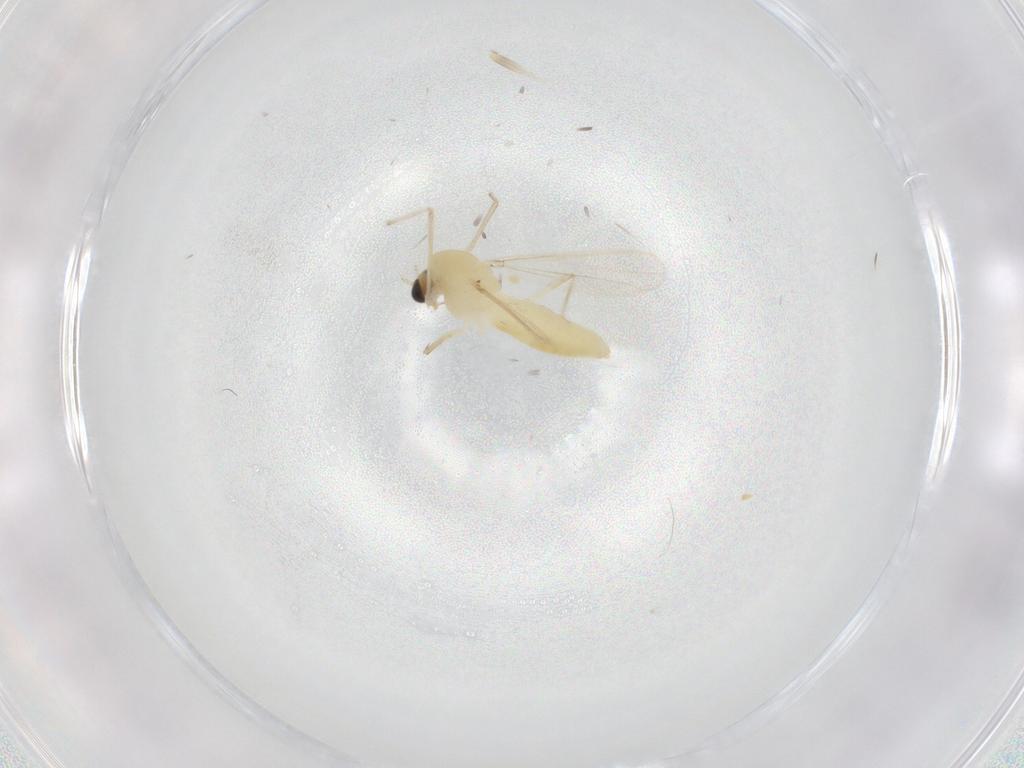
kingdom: Animalia
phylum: Arthropoda
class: Insecta
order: Diptera
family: Chironomidae
